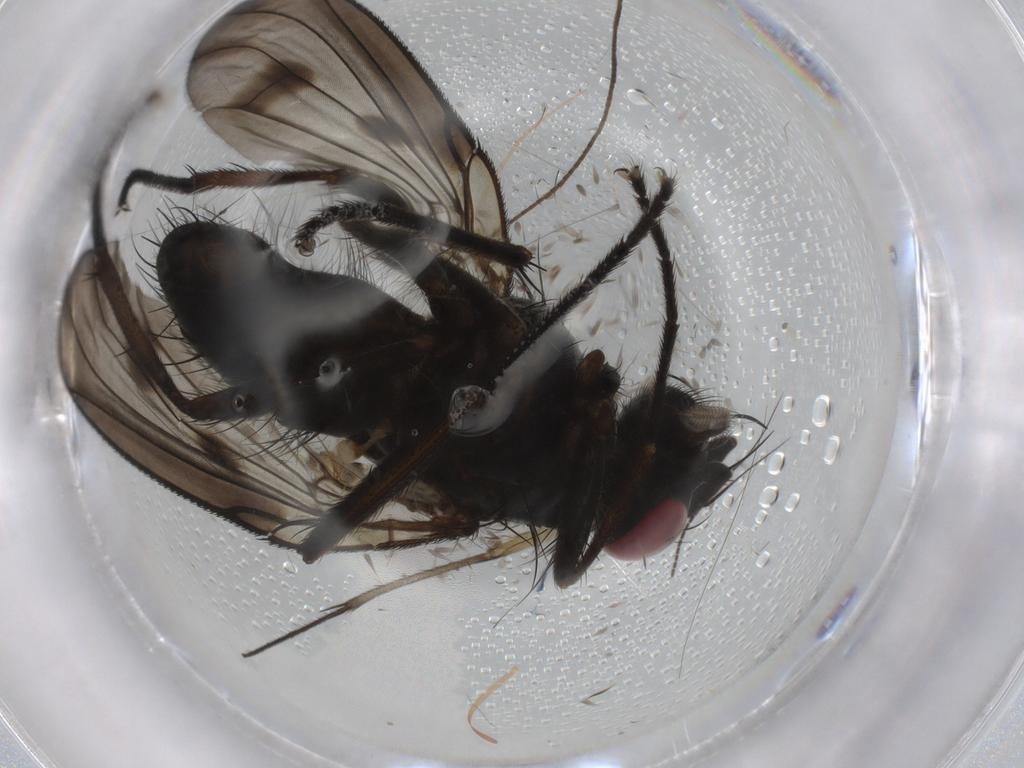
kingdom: Animalia
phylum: Arthropoda
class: Insecta
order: Diptera
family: Muscidae
